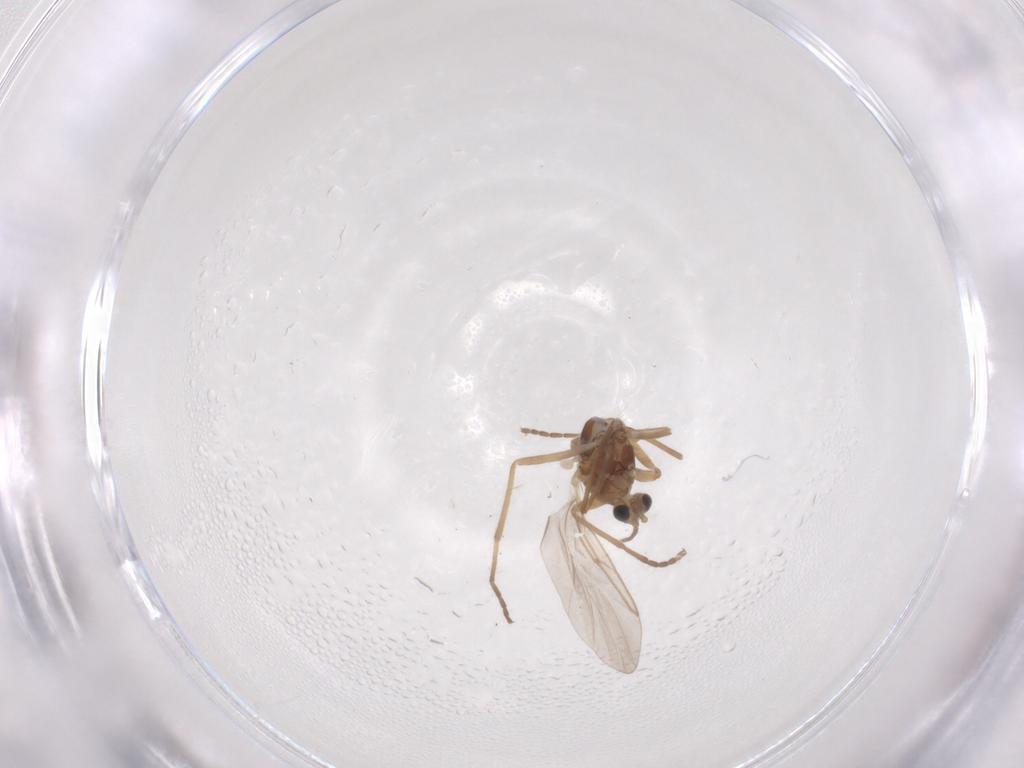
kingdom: Animalia
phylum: Arthropoda
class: Insecta
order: Diptera
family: Cecidomyiidae
